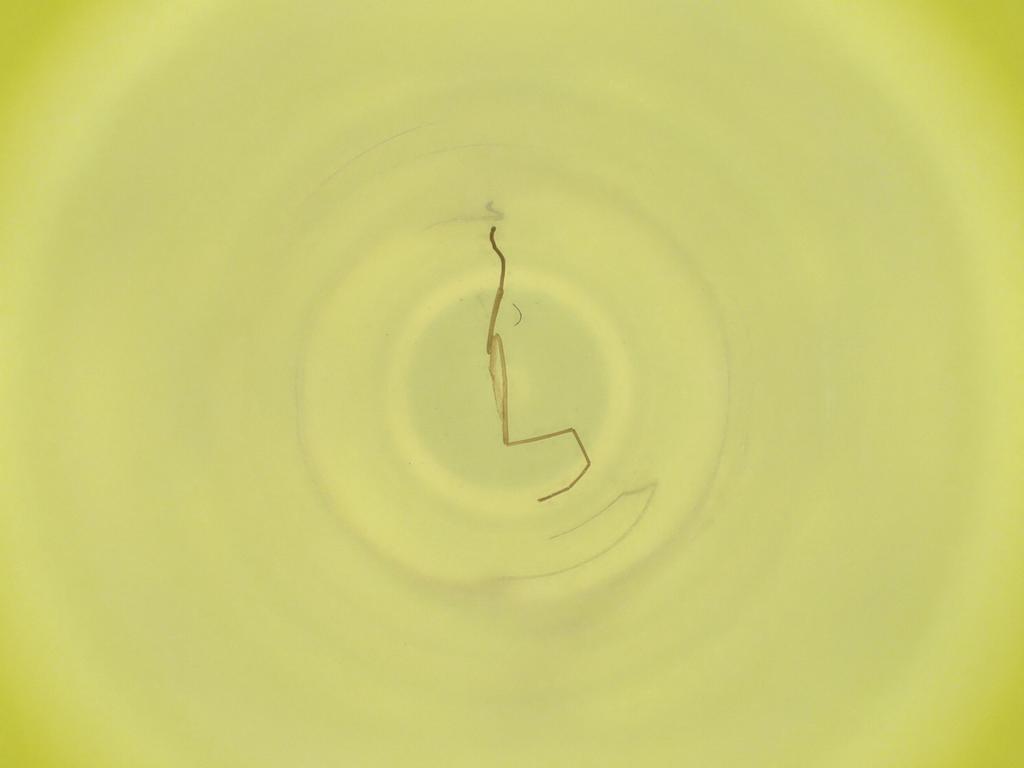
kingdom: Animalia
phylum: Arthropoda
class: Insecta
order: Diptera
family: Cecidomyiidae
